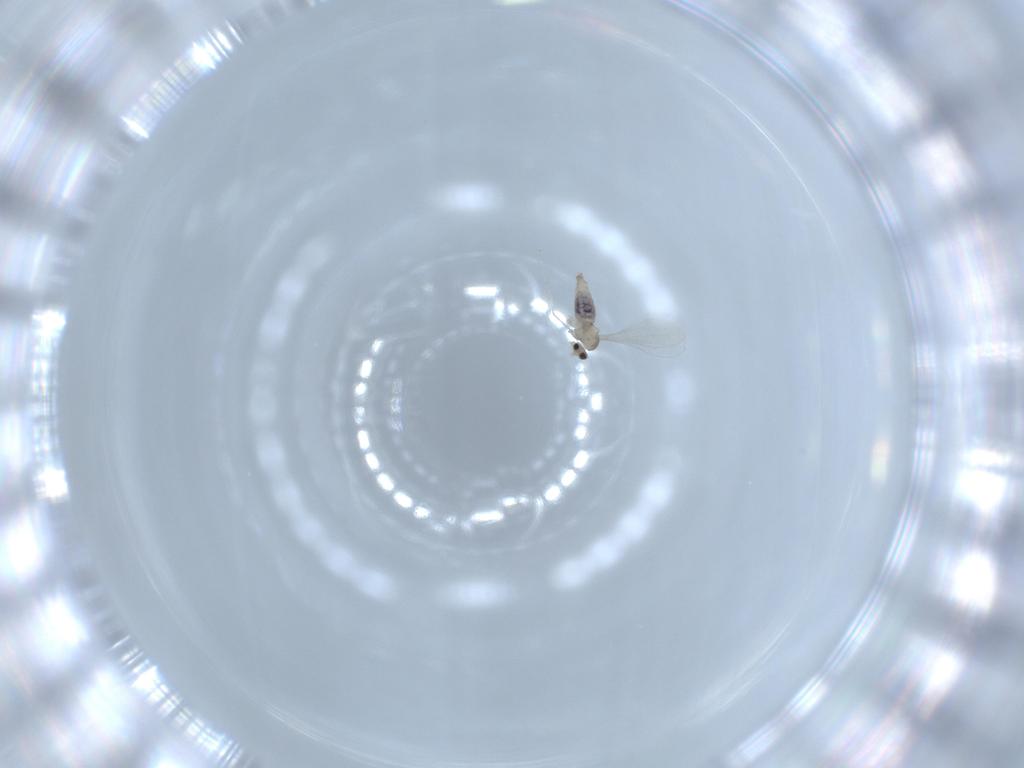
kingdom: Animalia
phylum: Arthropoda
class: Insecta
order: Diptera
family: Cecidomyiidae
